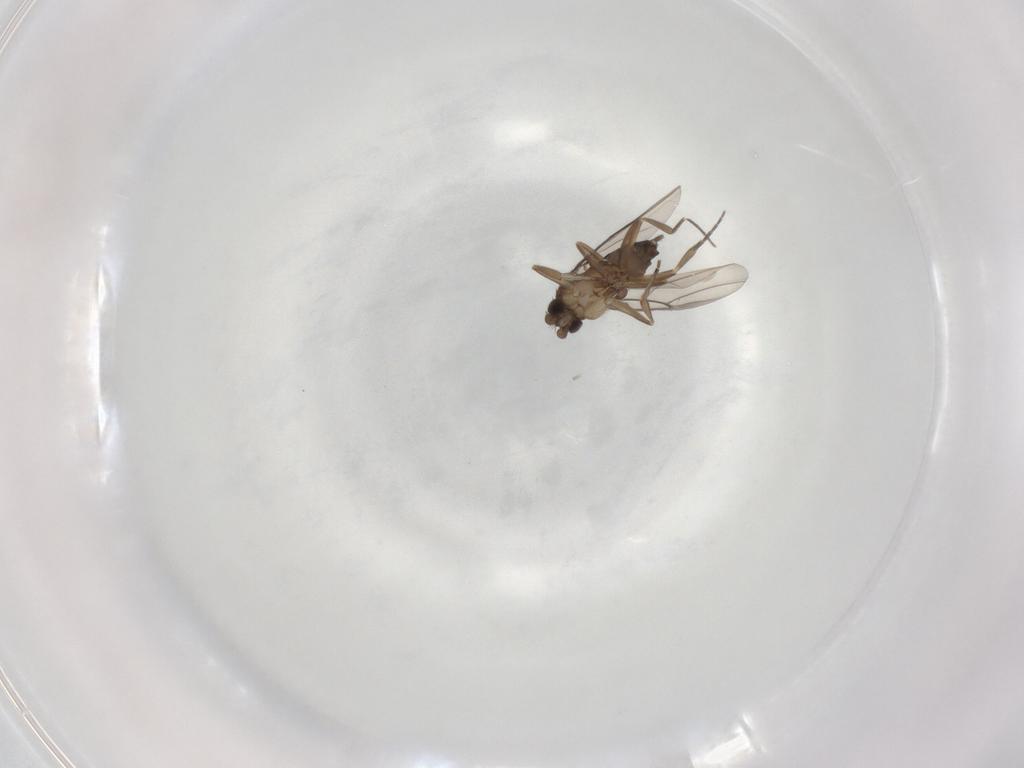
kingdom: Animalia
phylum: Arthropoda
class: Insecta
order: Diptera
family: Phoridae
